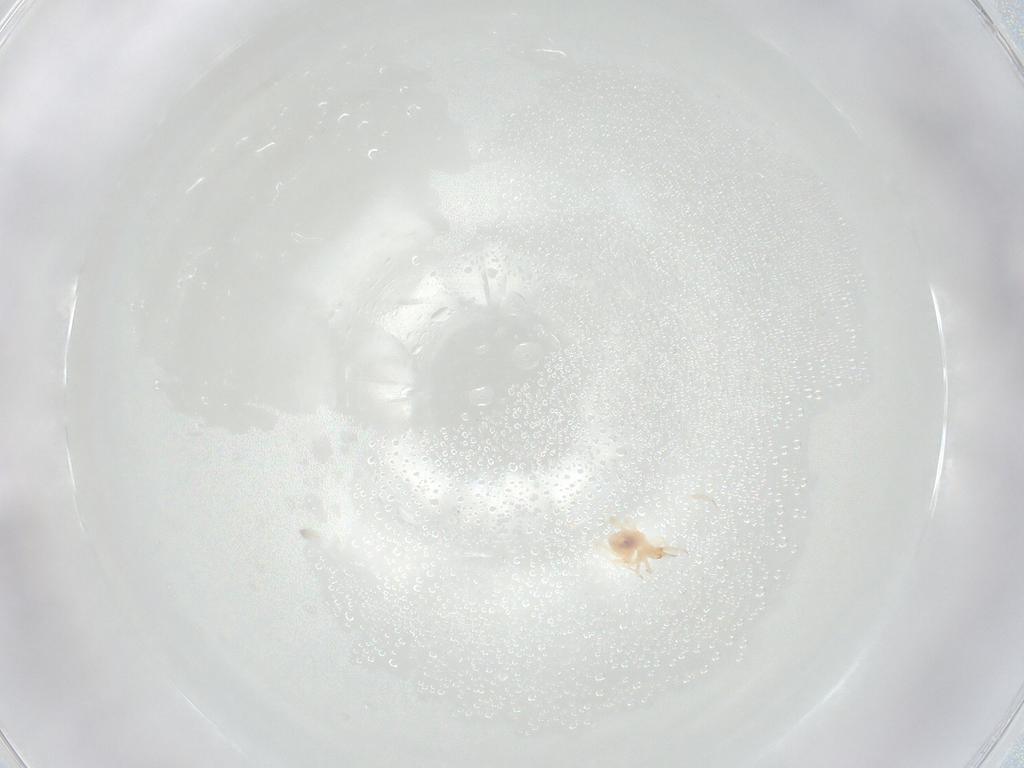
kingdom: Animalia
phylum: Arthropoda
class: Arachnida
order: Trombidiformes
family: Cunaxidae
